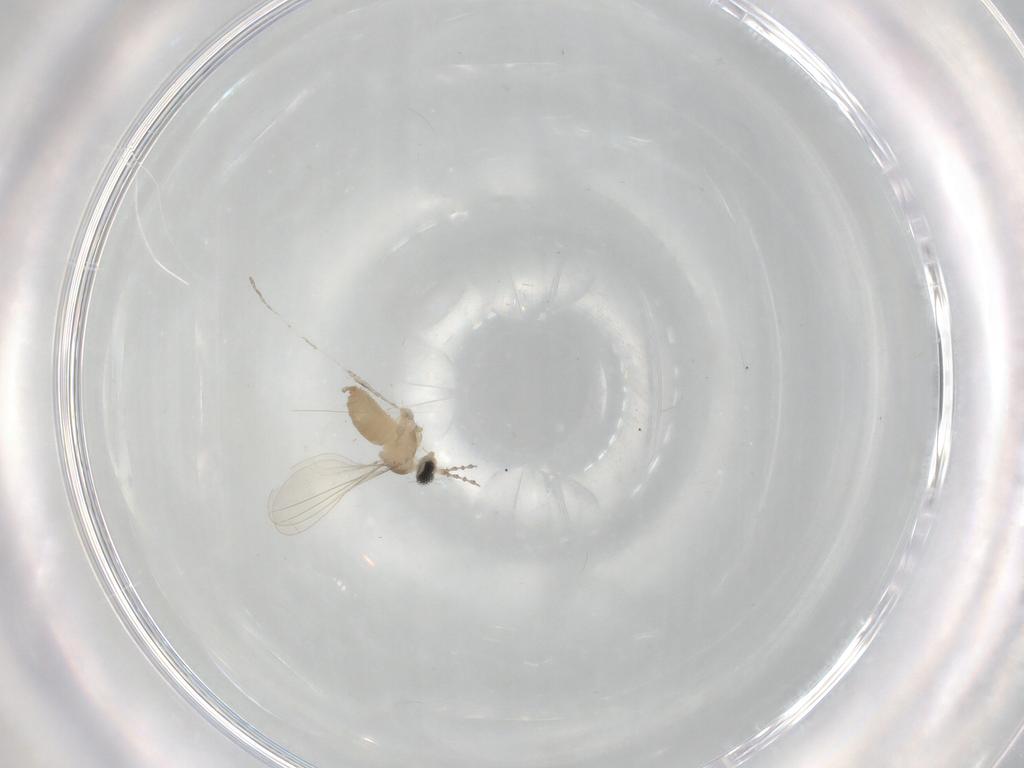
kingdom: Animalia
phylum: Arthropoda
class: Insecta
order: Diptera
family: Cecidomyiidae
